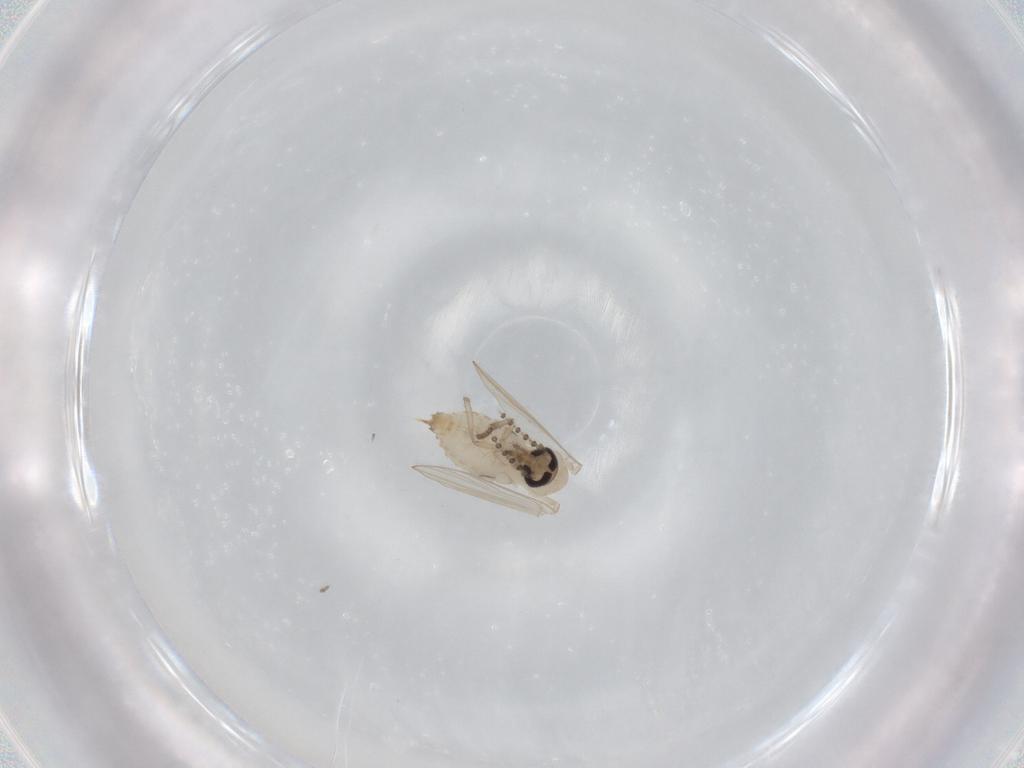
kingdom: Animalia
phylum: Arthropoda
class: Insecta
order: Diptera
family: Psychodidae
